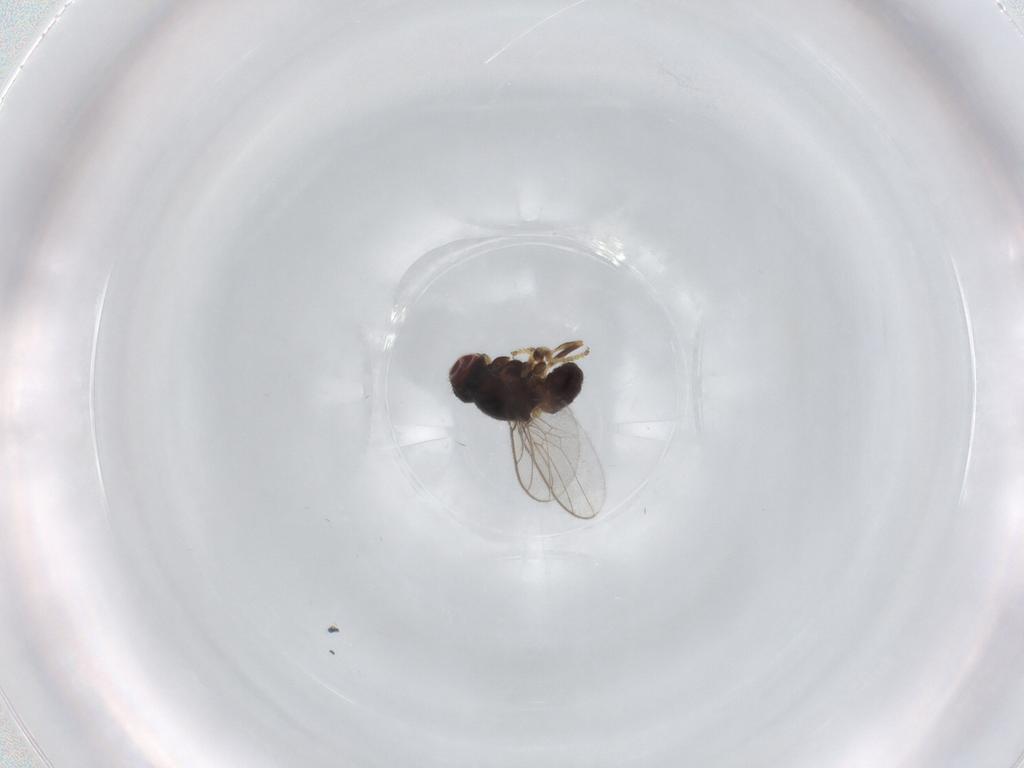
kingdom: Animalia
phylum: Arthropoda
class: Insecta
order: Diptera
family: Chloropidae
